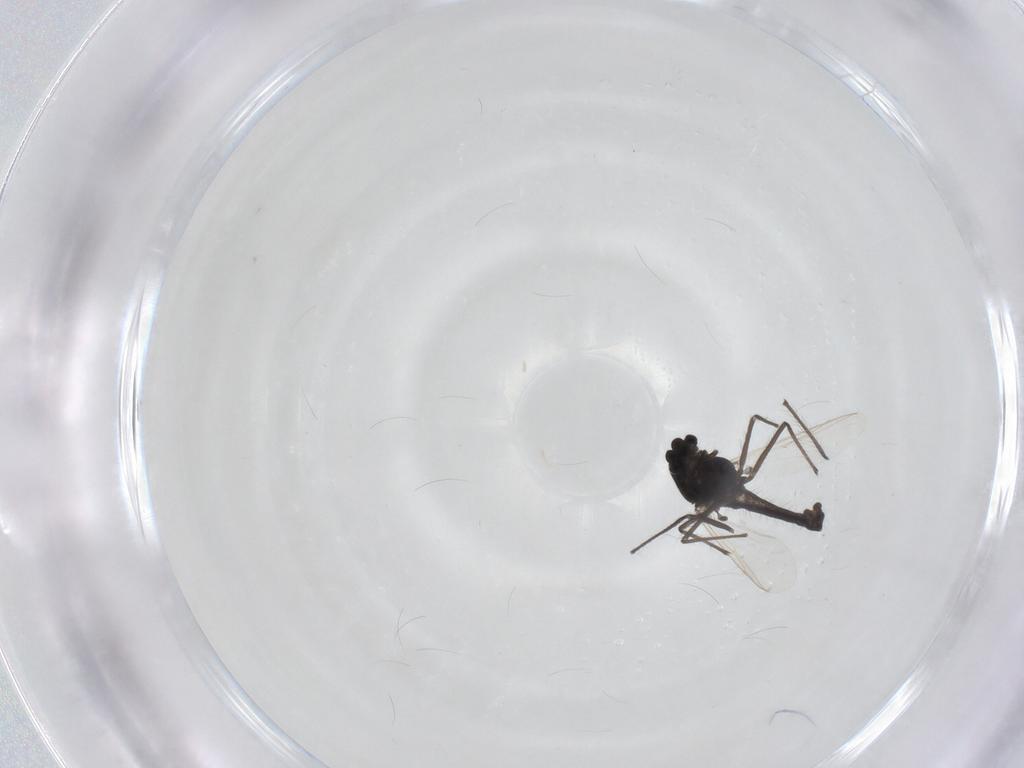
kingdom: Animalia
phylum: Arthropoda
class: Insecta
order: Diptera
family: Chironomidae
